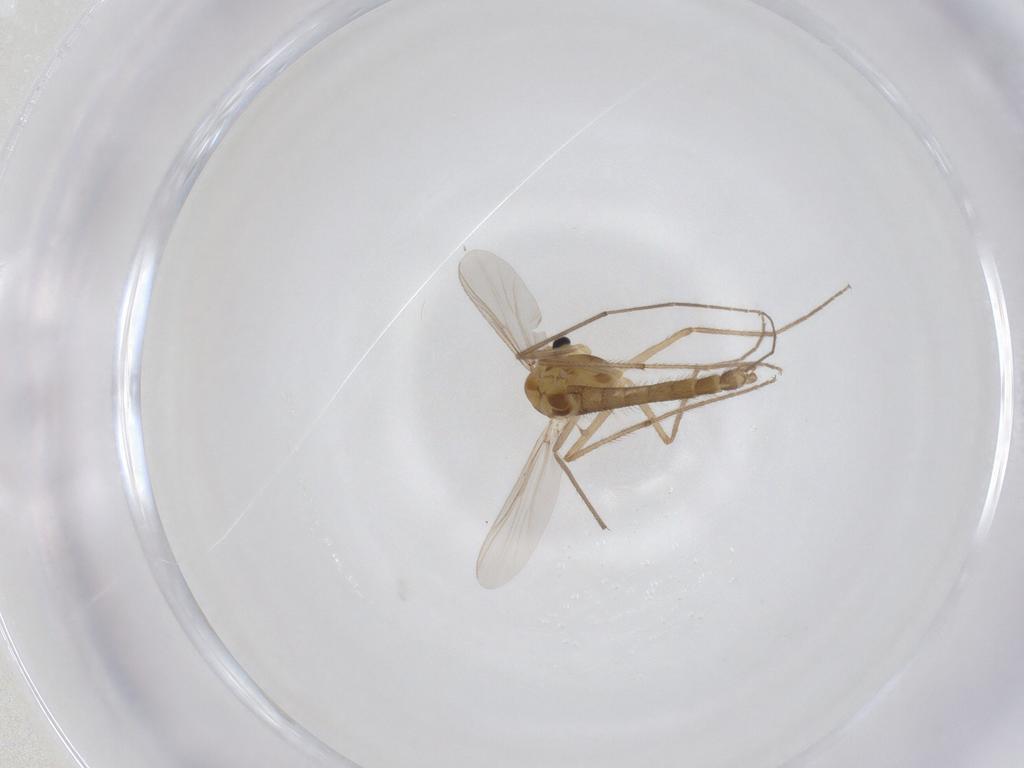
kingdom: Animalia
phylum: Arthropoda
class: Insecta
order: Diptera
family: Chironomidae
